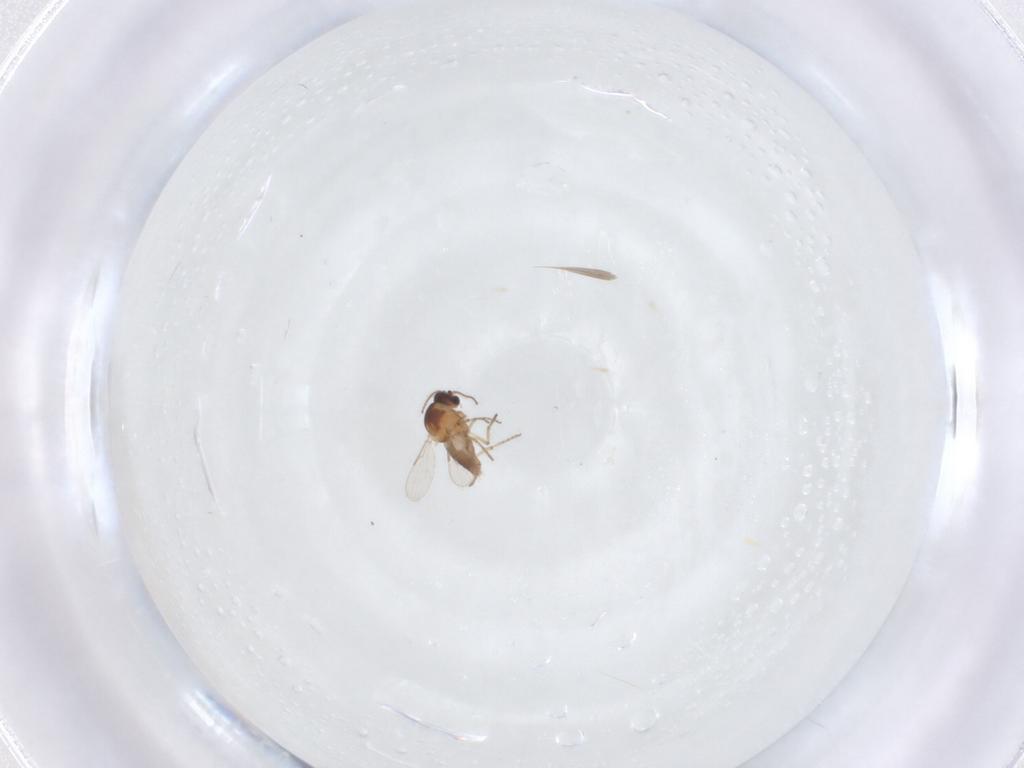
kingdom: Animalia
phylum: Arthropoda
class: Insecta
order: Diptera
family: Ceratopogonidae
